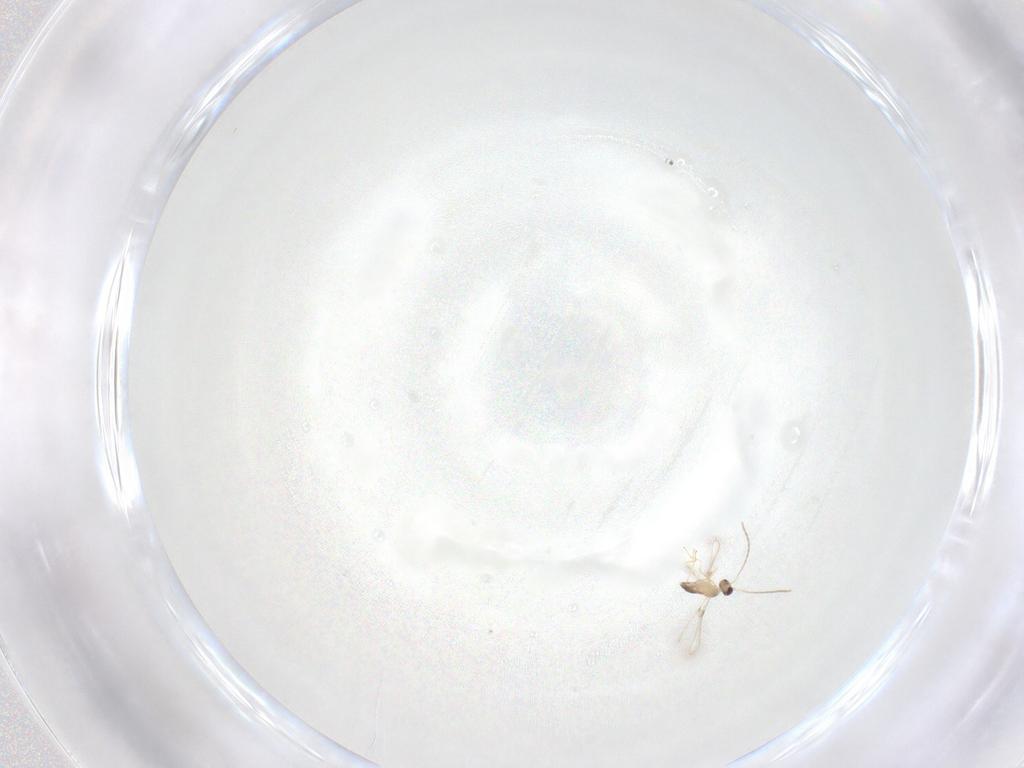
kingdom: Animalia
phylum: Arthropoda
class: Insecta
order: Hymenoptera
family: Mymaridae
